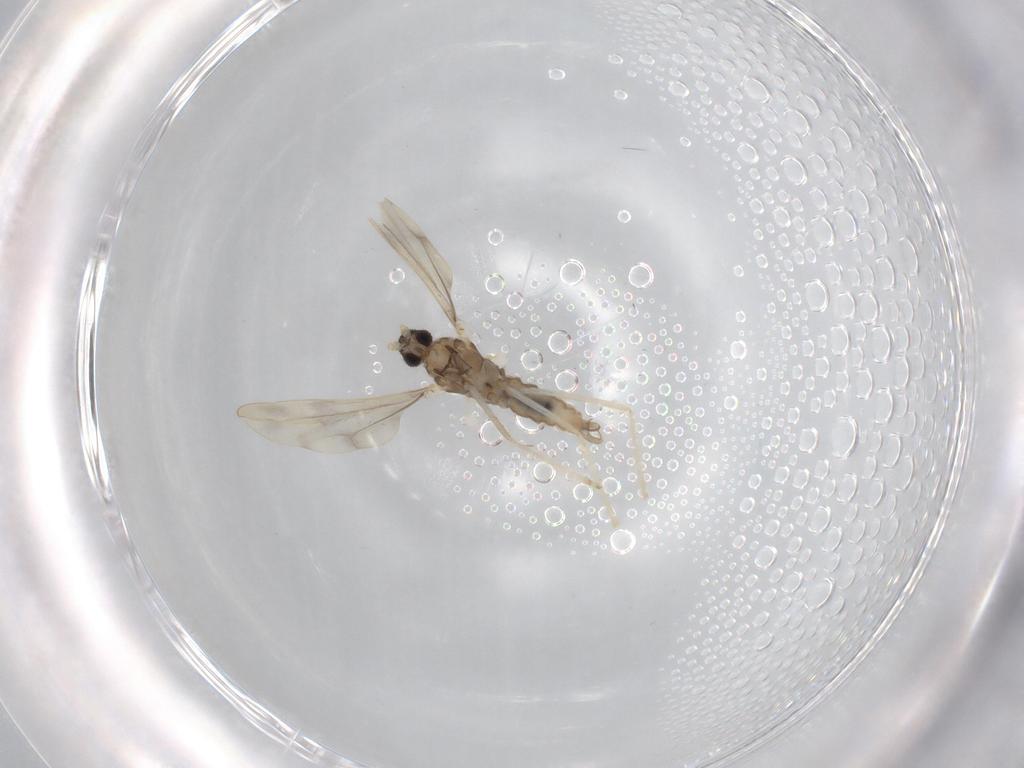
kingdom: Animalia
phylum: Arthropoda
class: Insecta
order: Diptera
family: Cecidomyiidae
